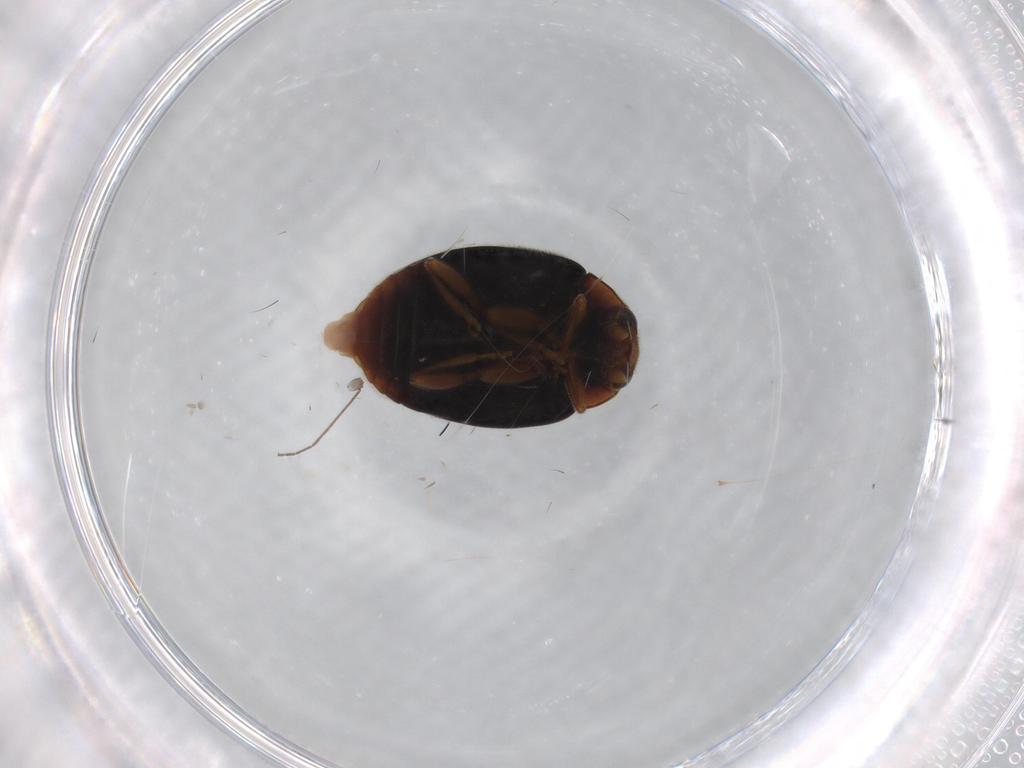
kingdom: Animalia
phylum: Arthropoda
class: Insecta
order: Coleoptera
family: Coccinellidae
